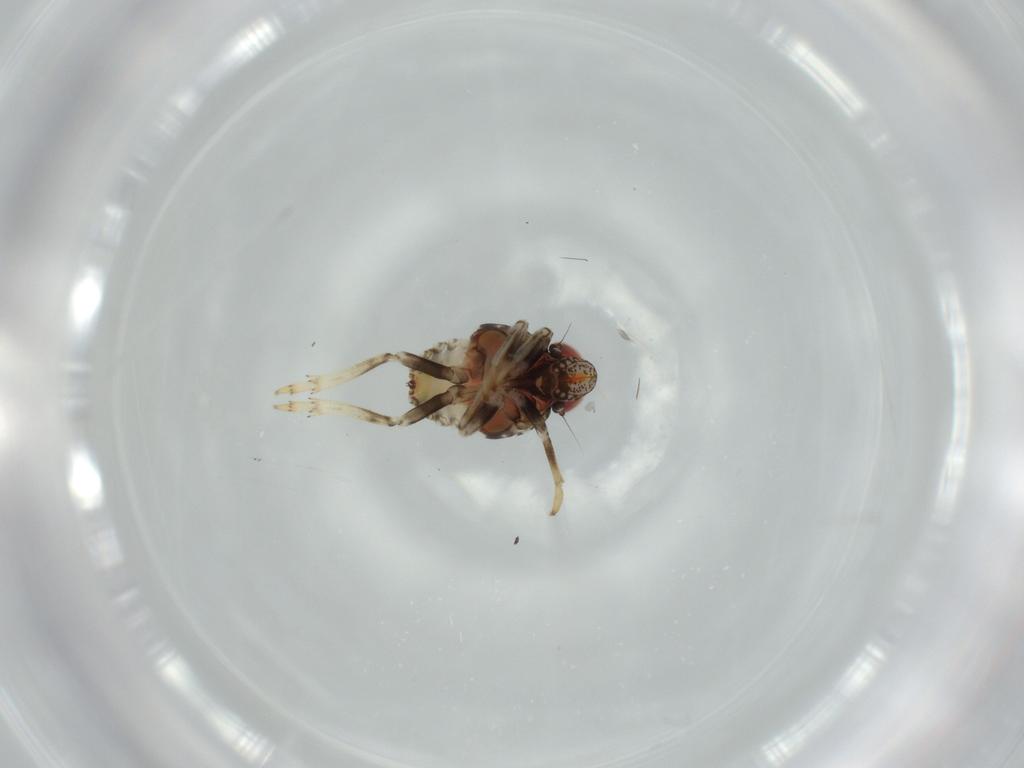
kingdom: Animalia
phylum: Arthropoda
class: Insecta
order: Hemiptera
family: Issidae
